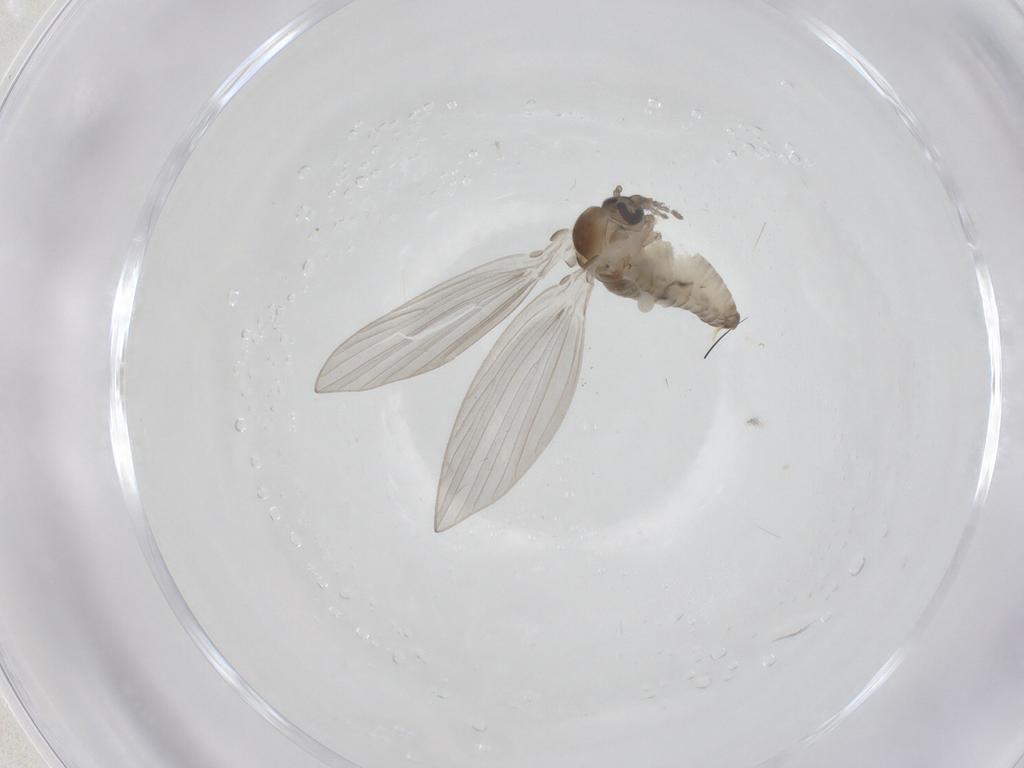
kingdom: Animalia
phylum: Arthropoda
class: Insecta
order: Diptera
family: Psychodidae
